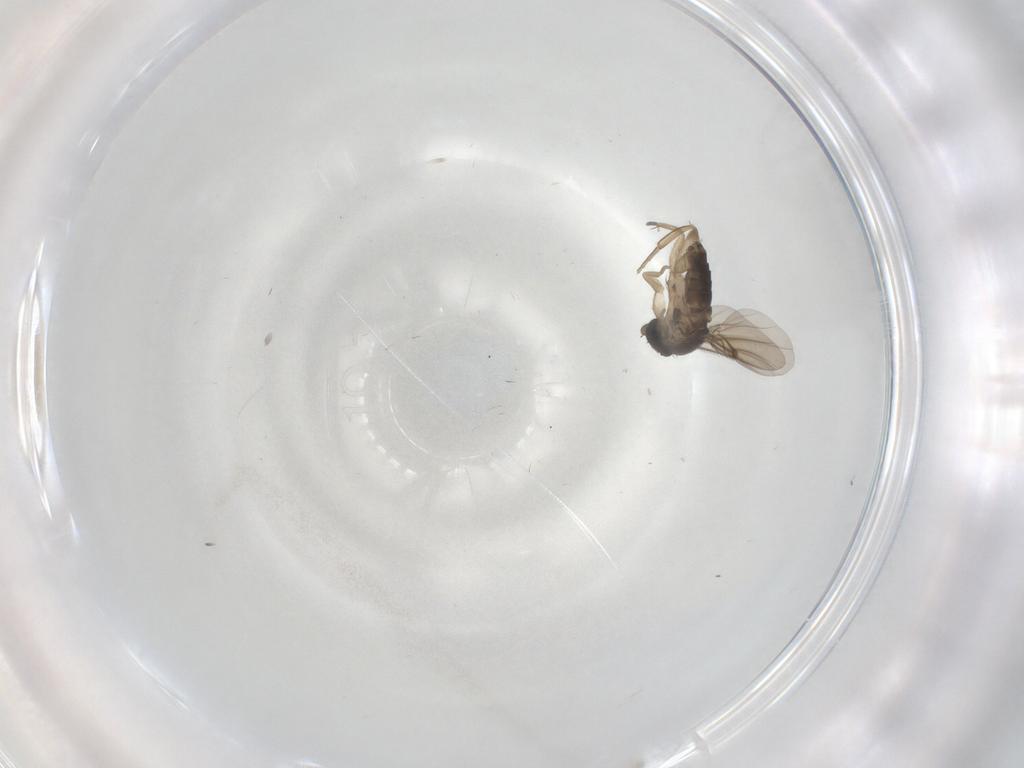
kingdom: Animalia
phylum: Arthropoda
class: Insecta
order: Diptera
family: Phoridae
